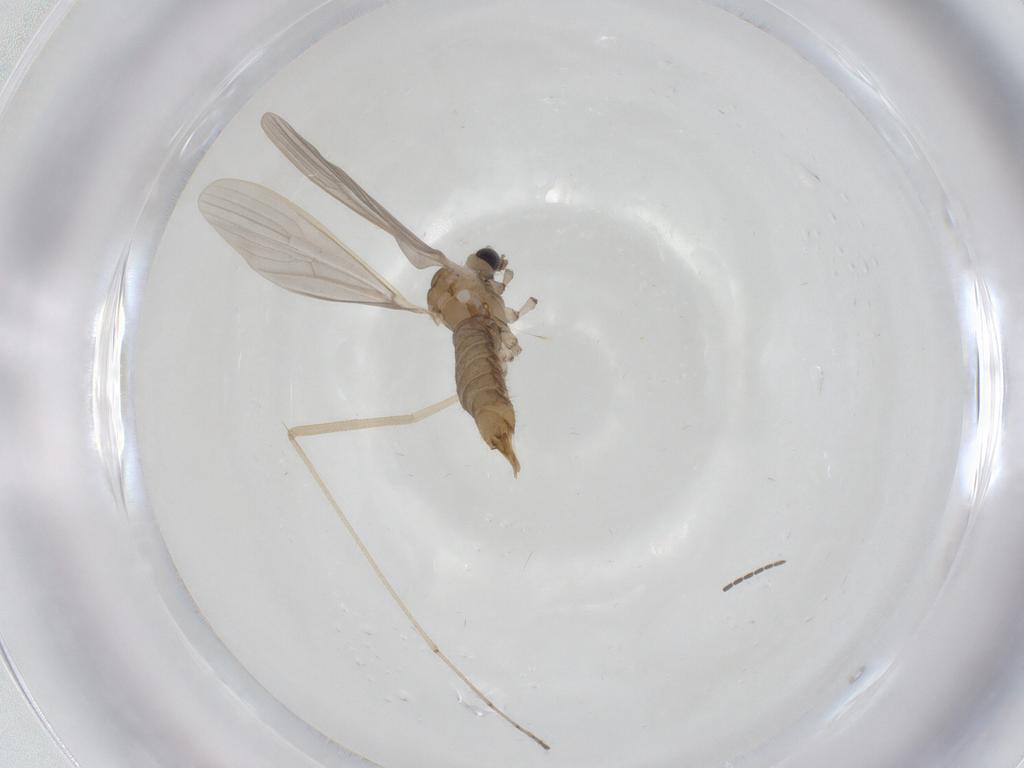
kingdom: Animalia
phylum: Arthropoda
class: Insecta
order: Diptera
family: Limoniidae
